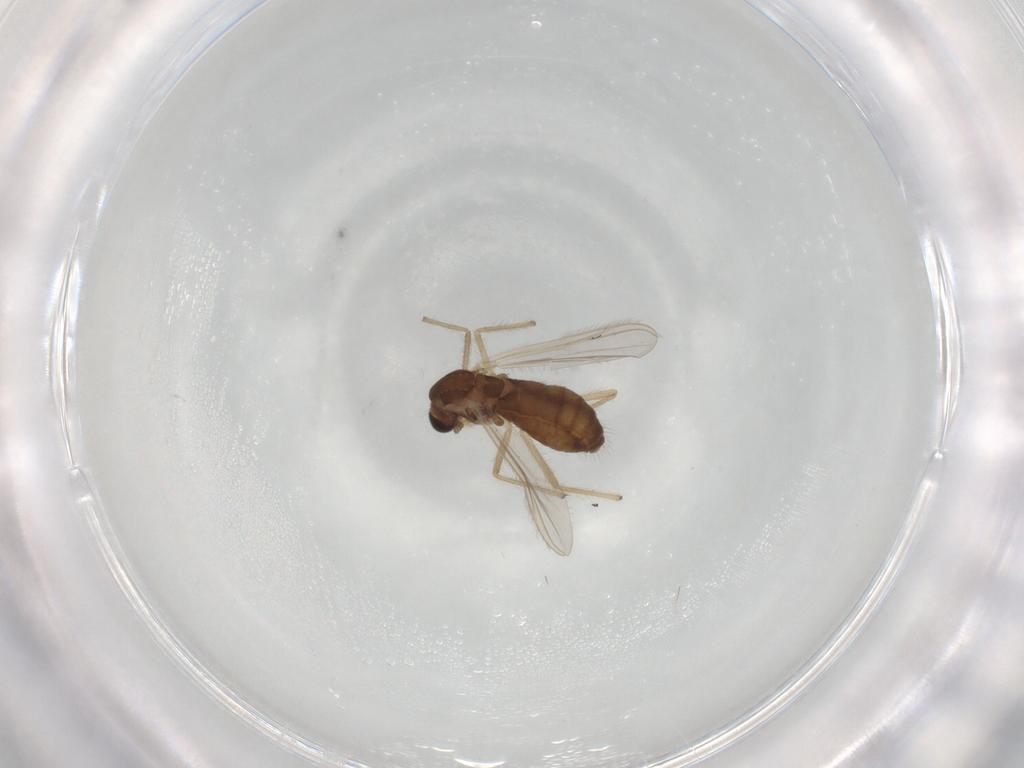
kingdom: Animalia
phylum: Arthropoda
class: Insecta
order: Diptera
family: Chironomidae
